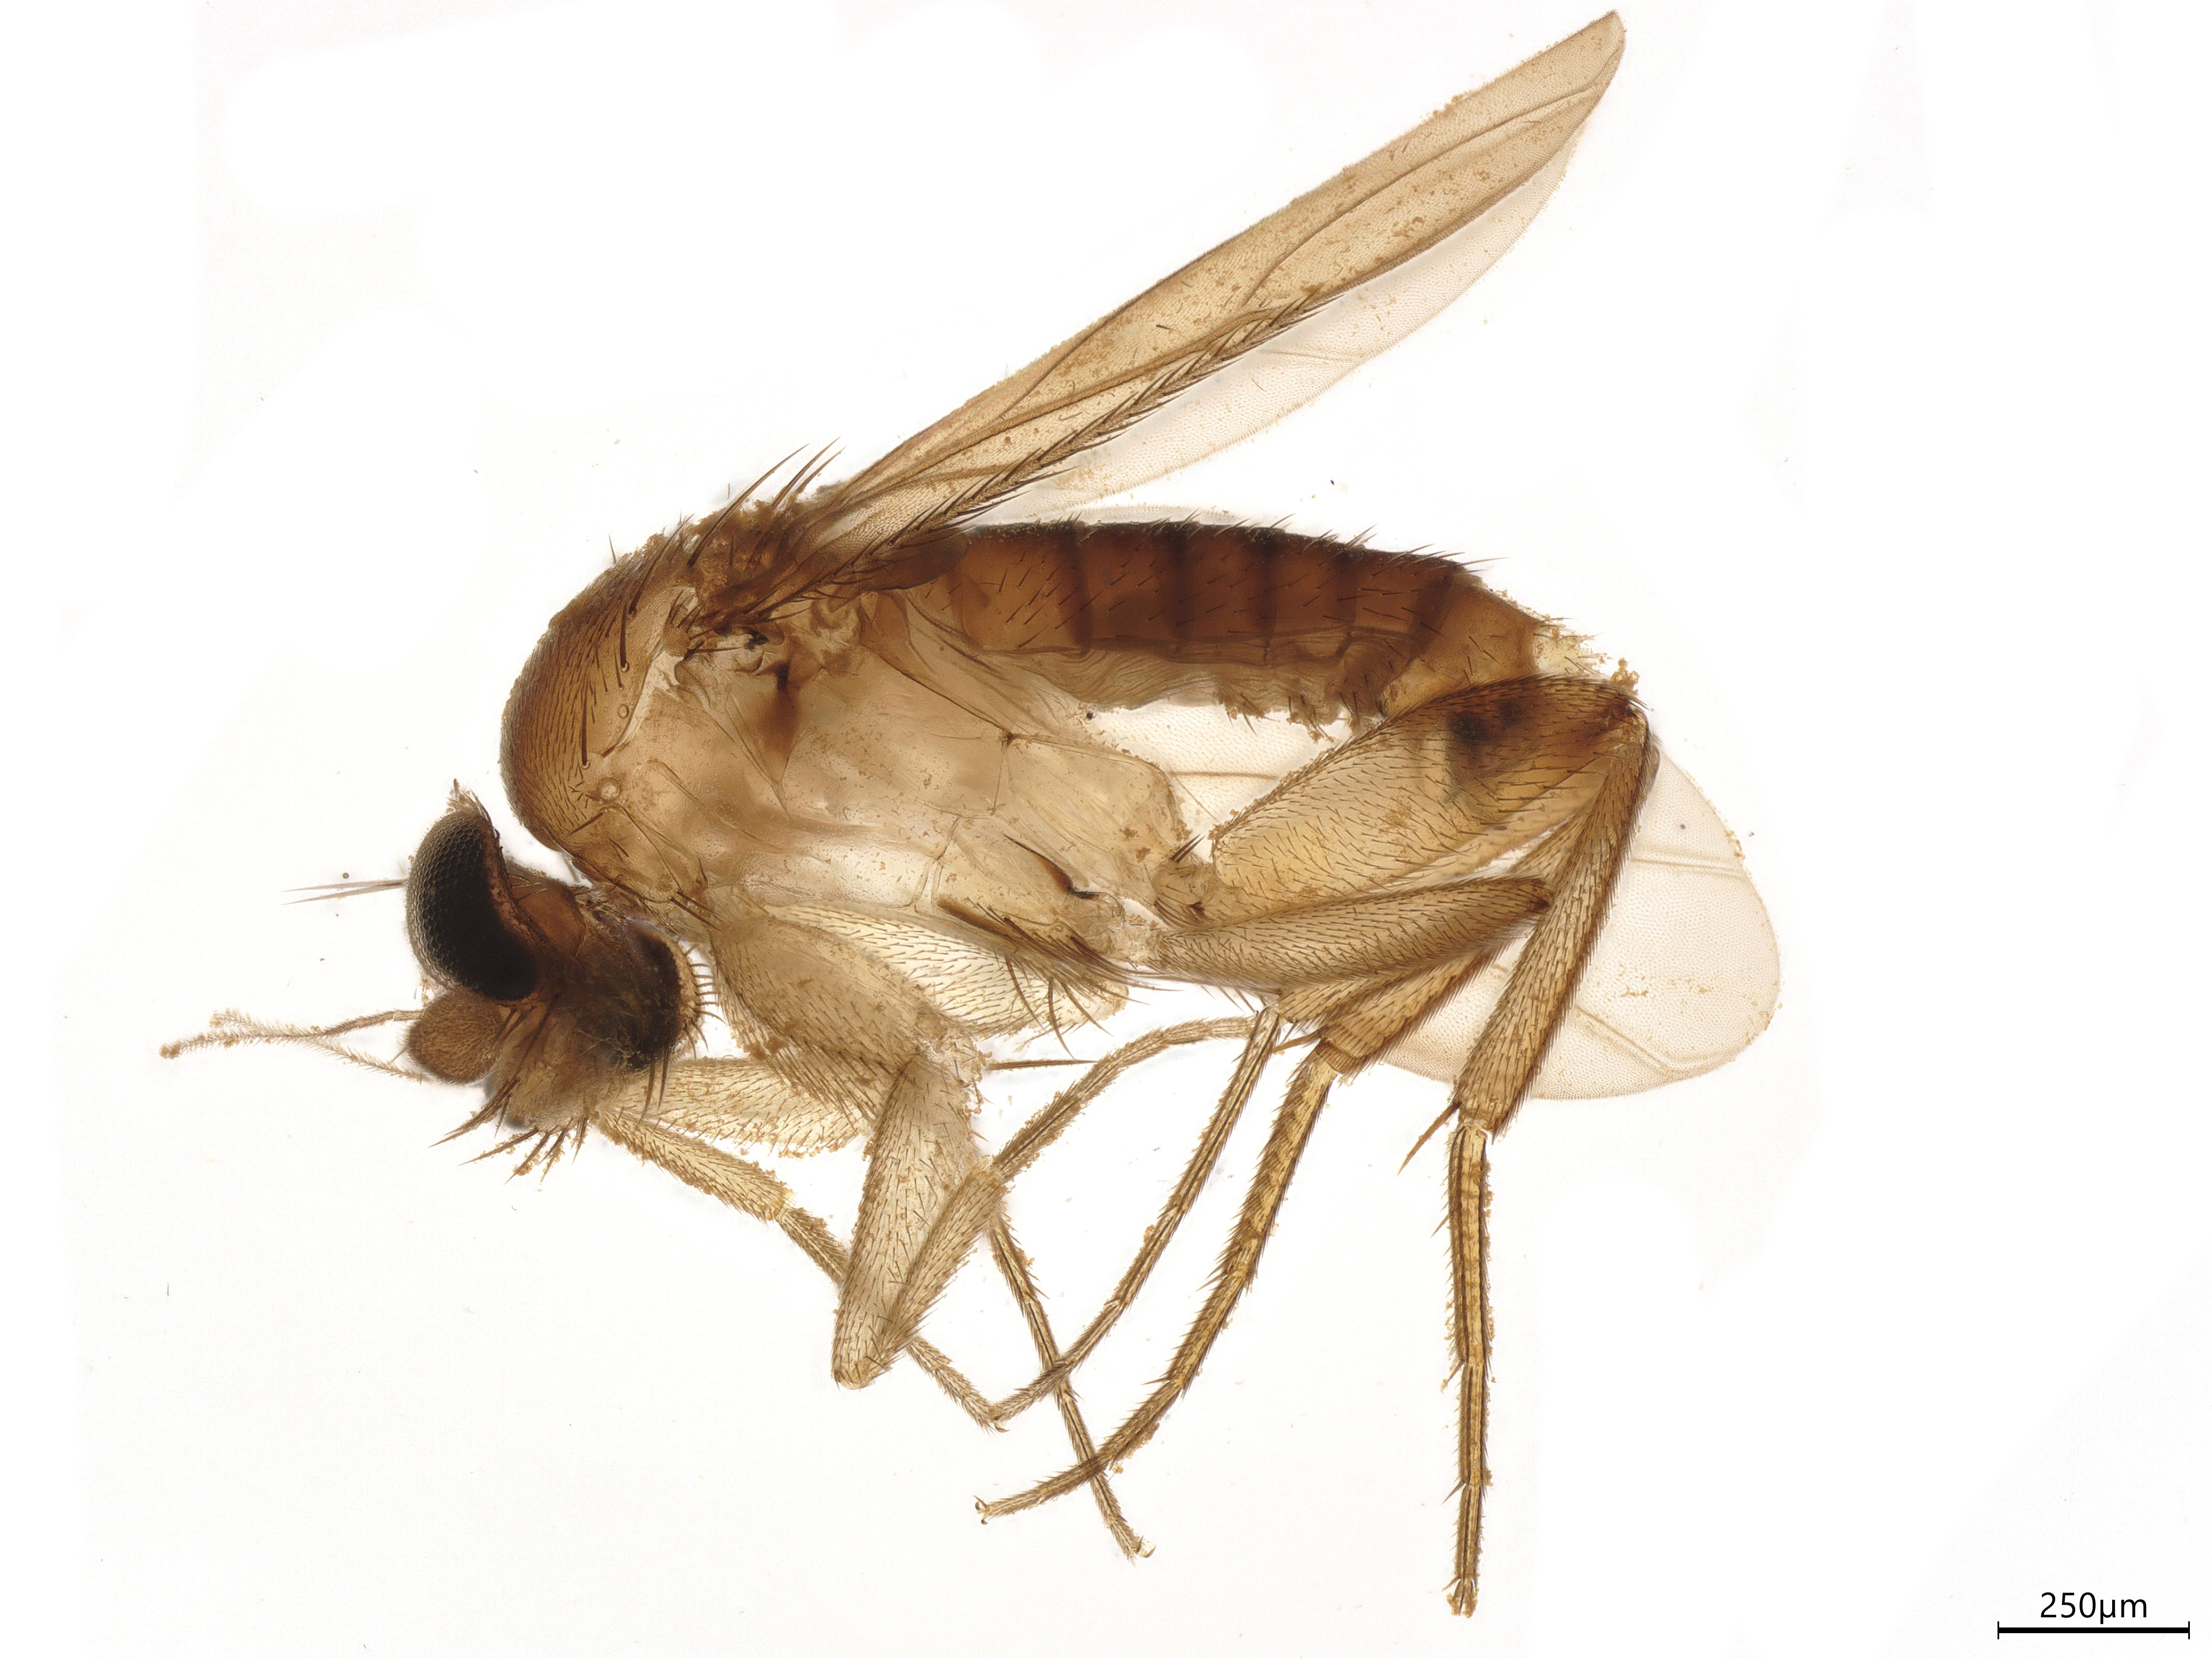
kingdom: Animalia
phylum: Arthropoda
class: Insecta
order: Diptera
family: Phoridae
